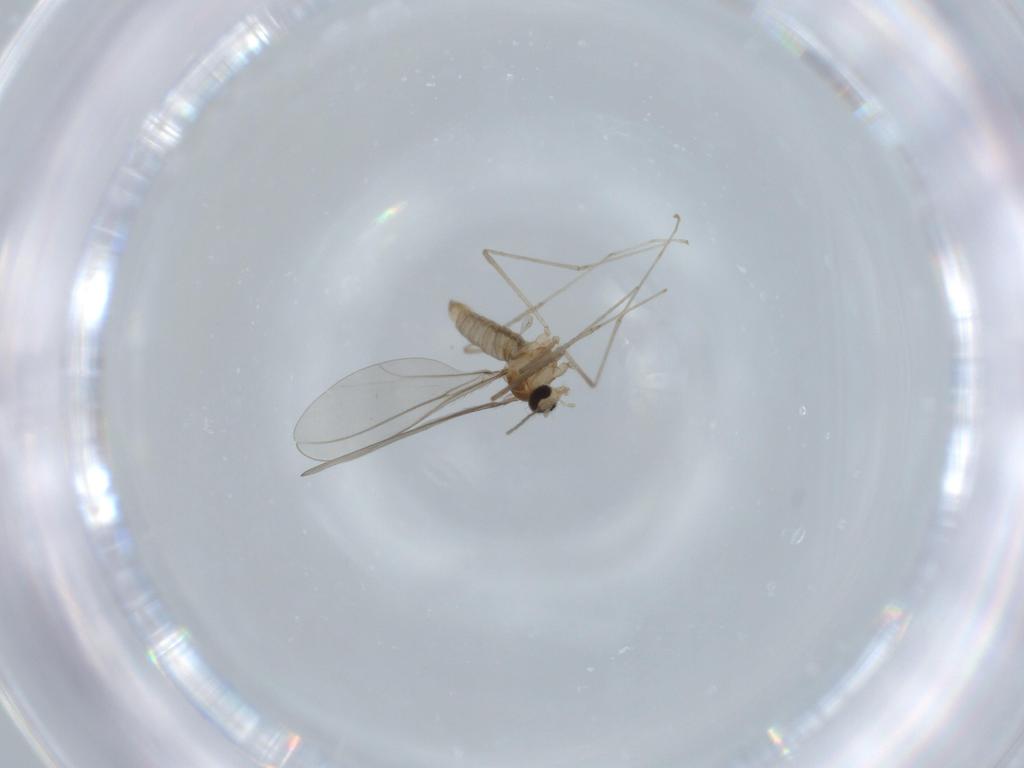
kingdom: Animalia
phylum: Arthropoda
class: Insecta
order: Diptera
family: Cecidomyiidae
